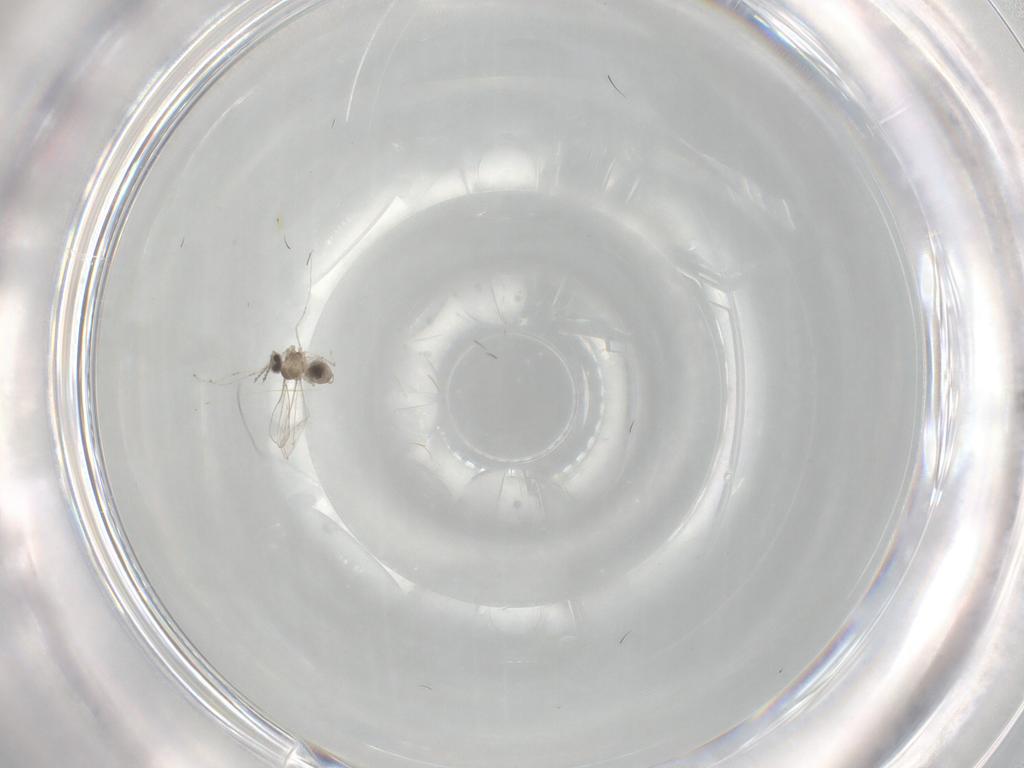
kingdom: Animalia
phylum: Arthropoda
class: Insecta
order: Diptera
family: Cecidomyiidae
